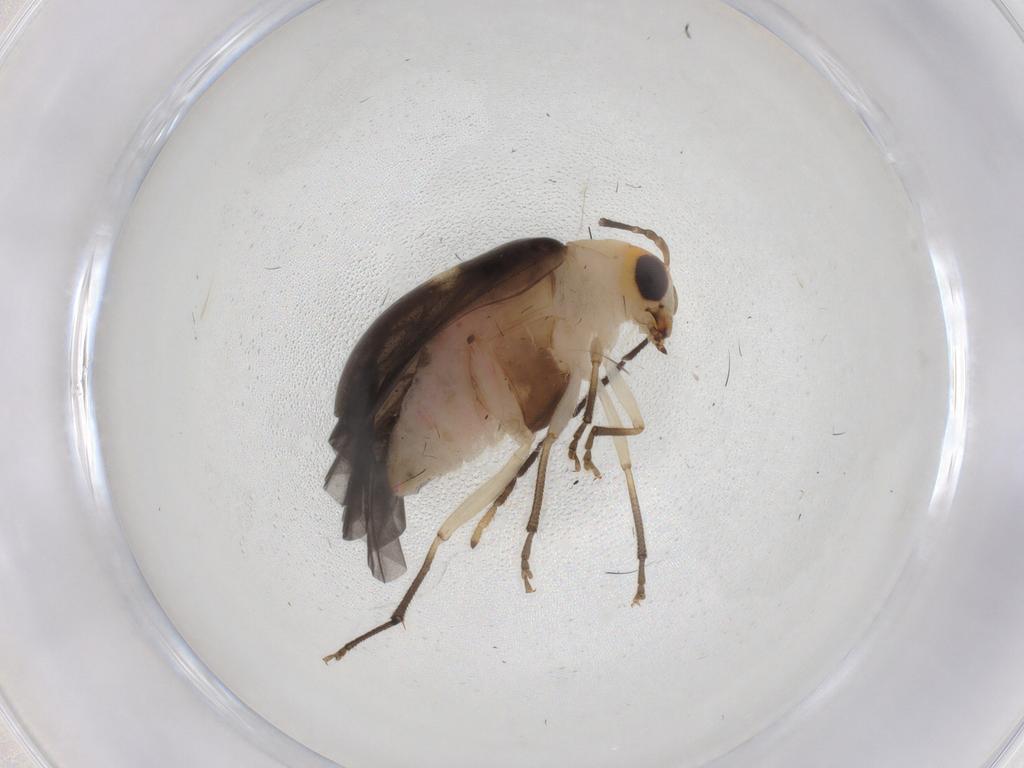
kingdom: Animalia
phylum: Arthropoda
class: Insecta
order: Coleoptera
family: Chrysomelidae
